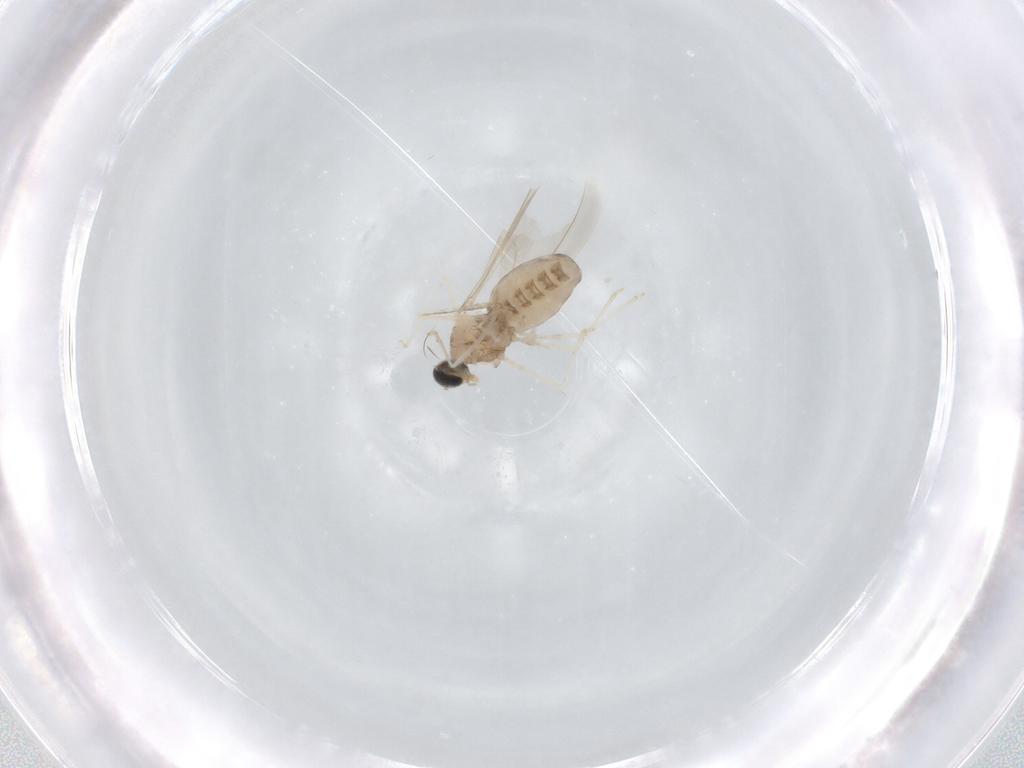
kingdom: Animalia
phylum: Arthropoda
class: Insecta
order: Diptera
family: Cecidomyiidae
